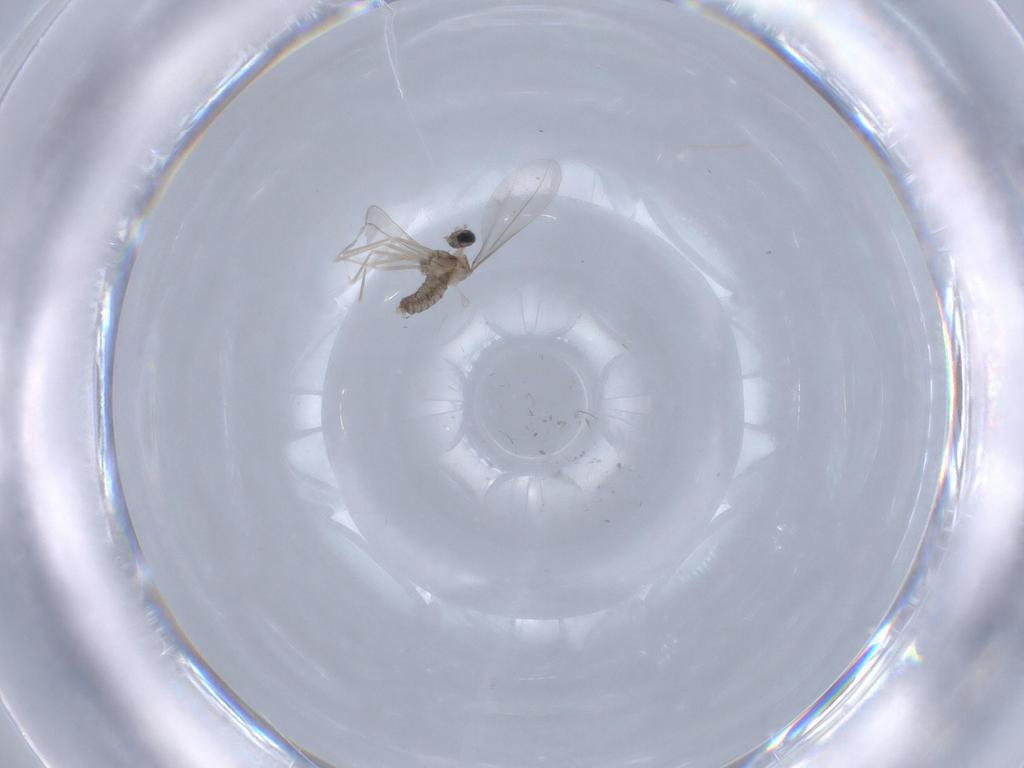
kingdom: Animalia
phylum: Arthropoda
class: Insecta
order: Diptera
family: Cecidomyiidae
